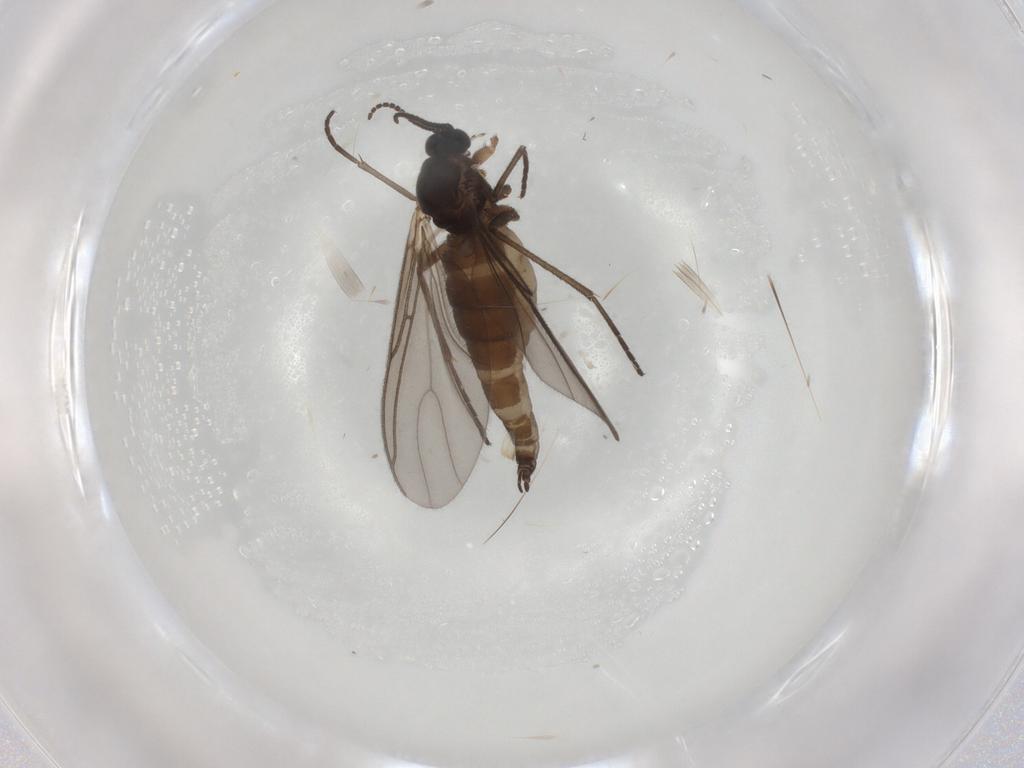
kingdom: Animalia
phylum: Arthropoda
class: Insecta
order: Diptera
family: Sciaridae
